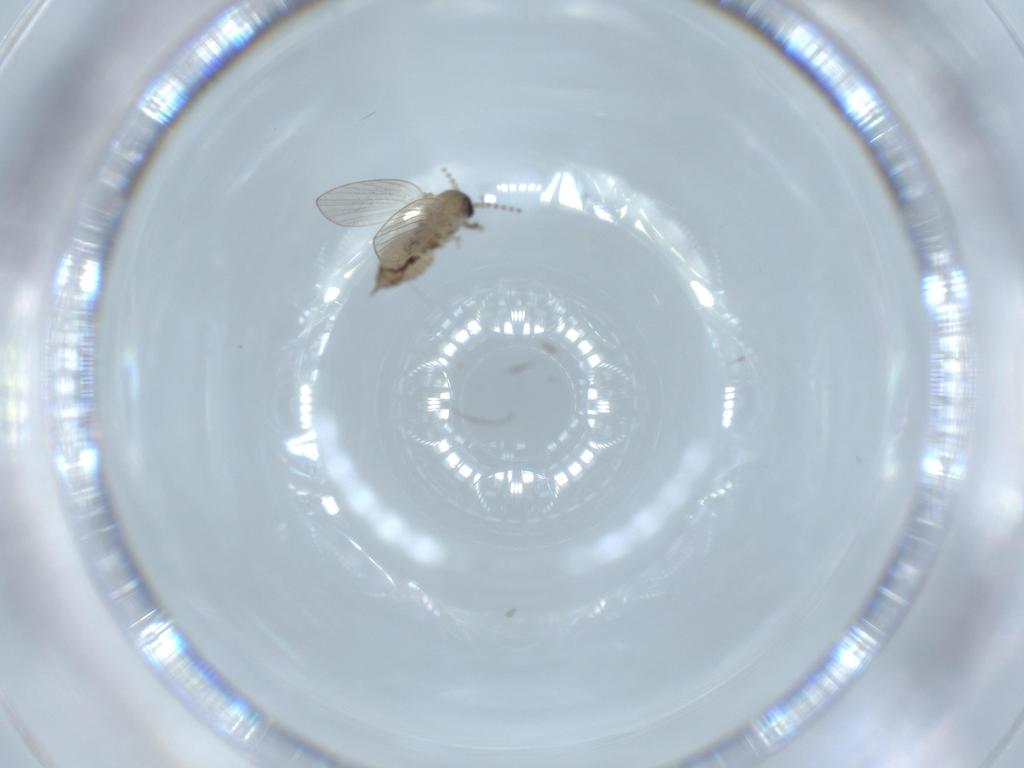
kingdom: Animalia
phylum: Arthropoda
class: Insecta
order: Diptera
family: Psychodidae
